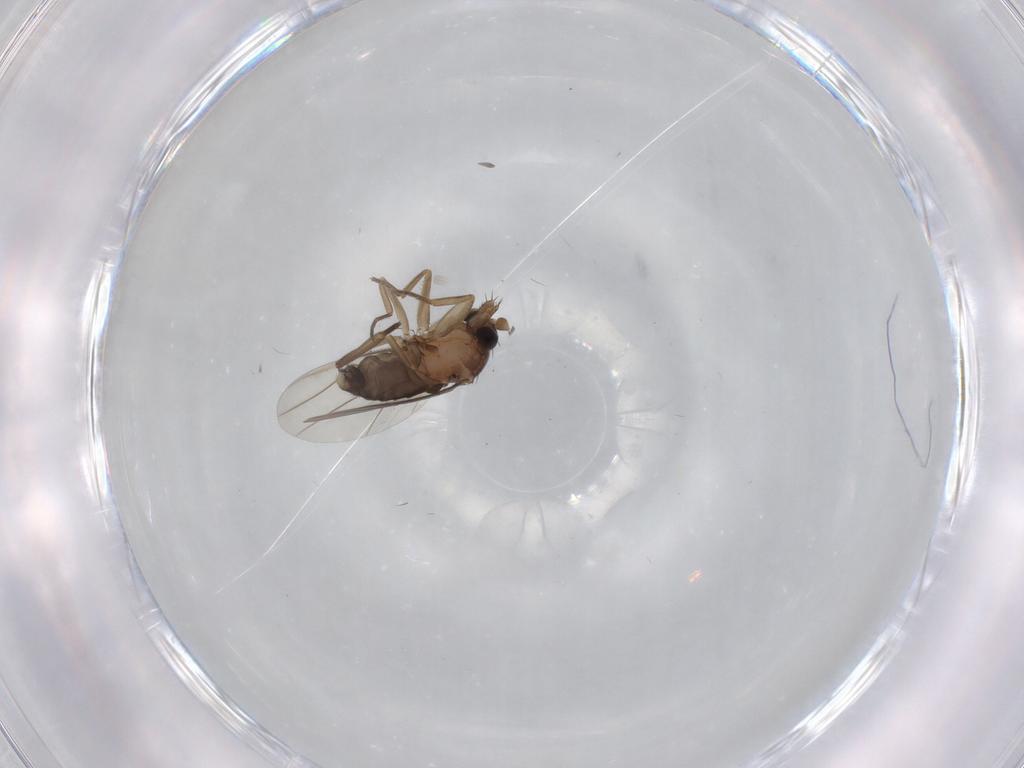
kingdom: Animalia
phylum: Arthropoda
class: Insecta
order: Diptera
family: Phoridae
